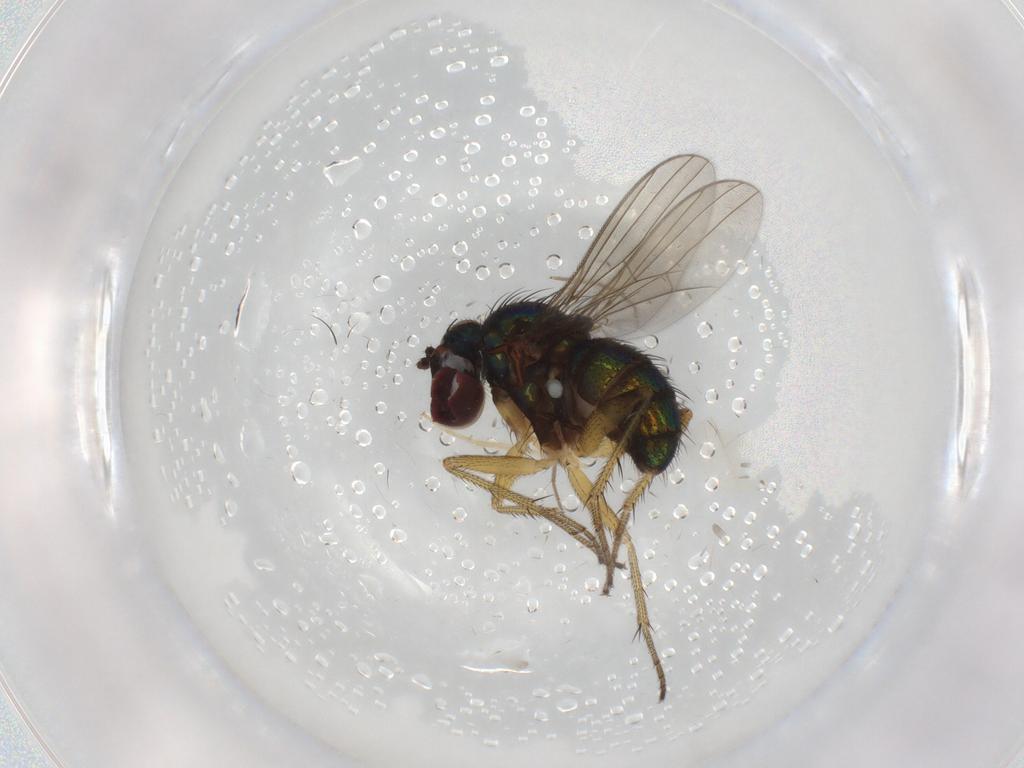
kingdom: Animalia
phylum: Arthropoda
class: Insecta
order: Diptera
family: Dolichopodidae
